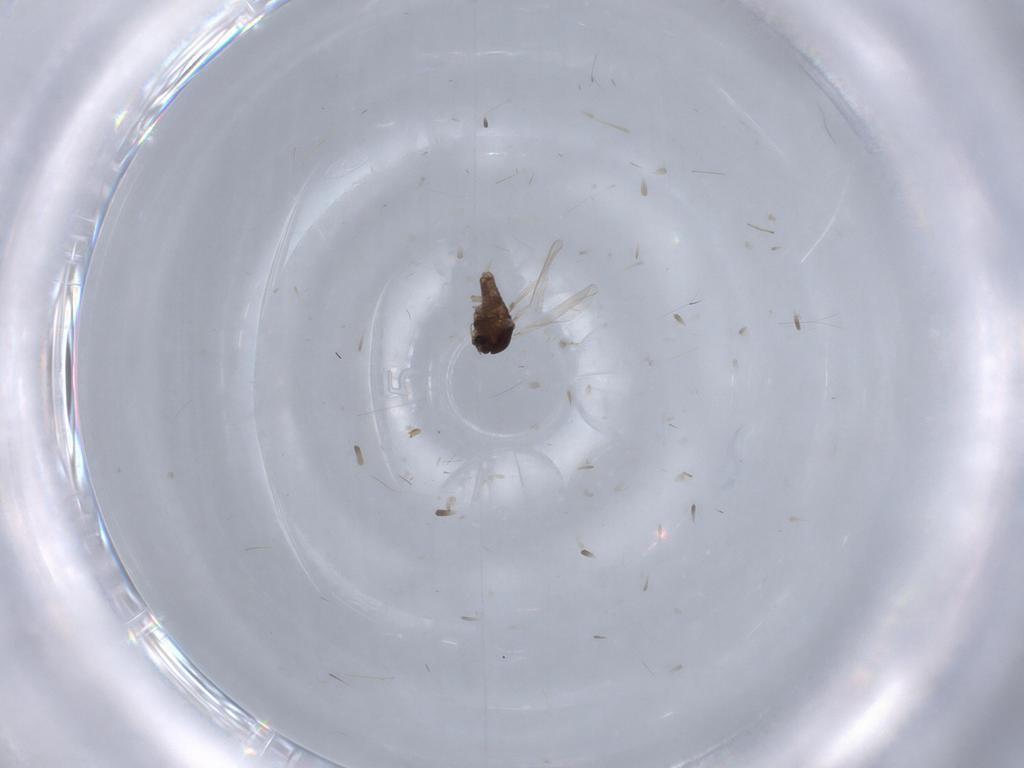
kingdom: Animalia
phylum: Arthropoda
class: Insecta
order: Diptera
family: Chironomidae
